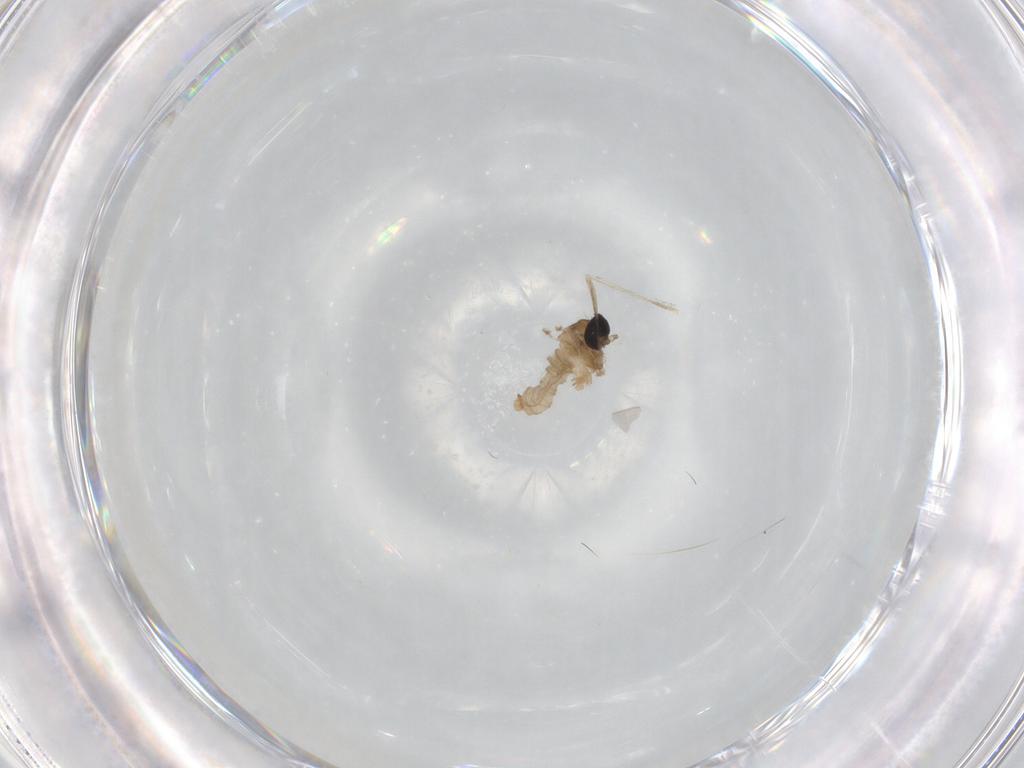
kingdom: Animalia
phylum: Arthropoda
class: Insecta
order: Diptera
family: Cecidomyiidae
